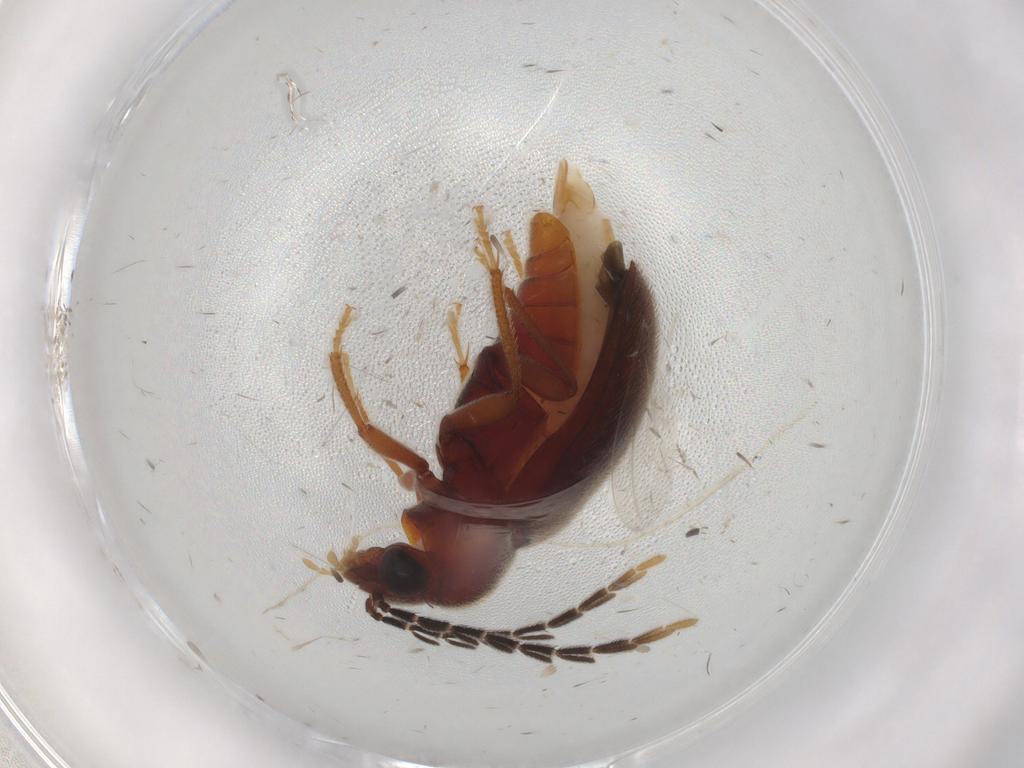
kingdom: Animalia
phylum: Arthropoda
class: Insecta
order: Coleoptera
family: Ptilodactylidae
